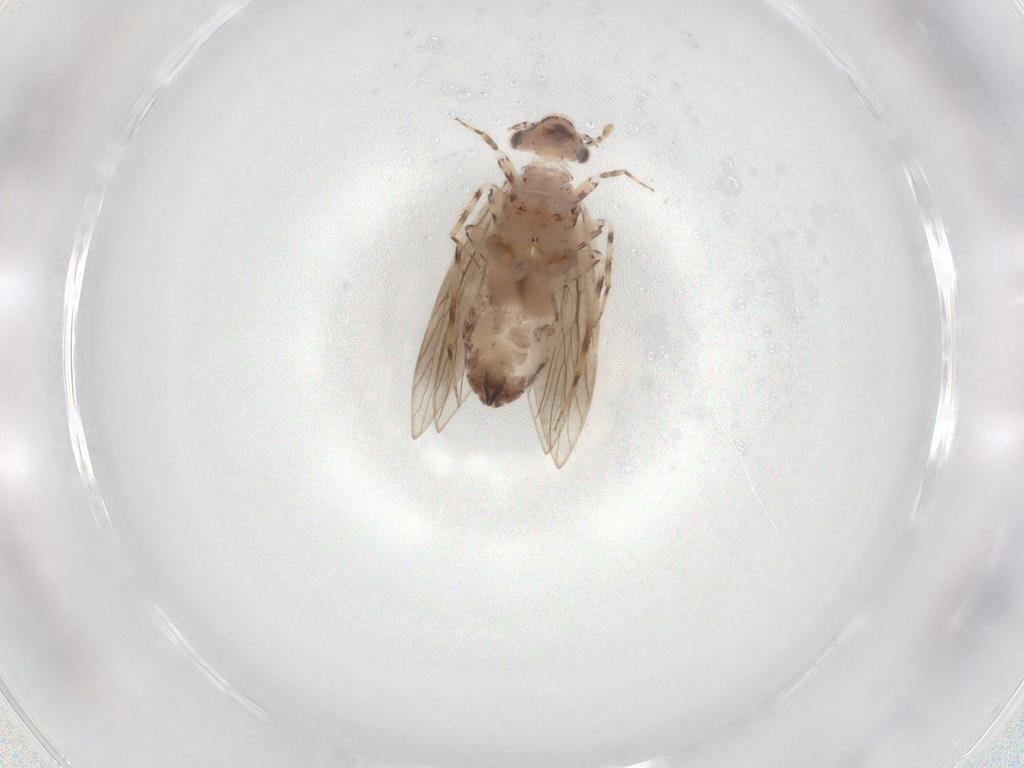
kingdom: Animalia
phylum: Arthropoda
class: Insecta
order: Psocodea
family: Lepidopsocidae
